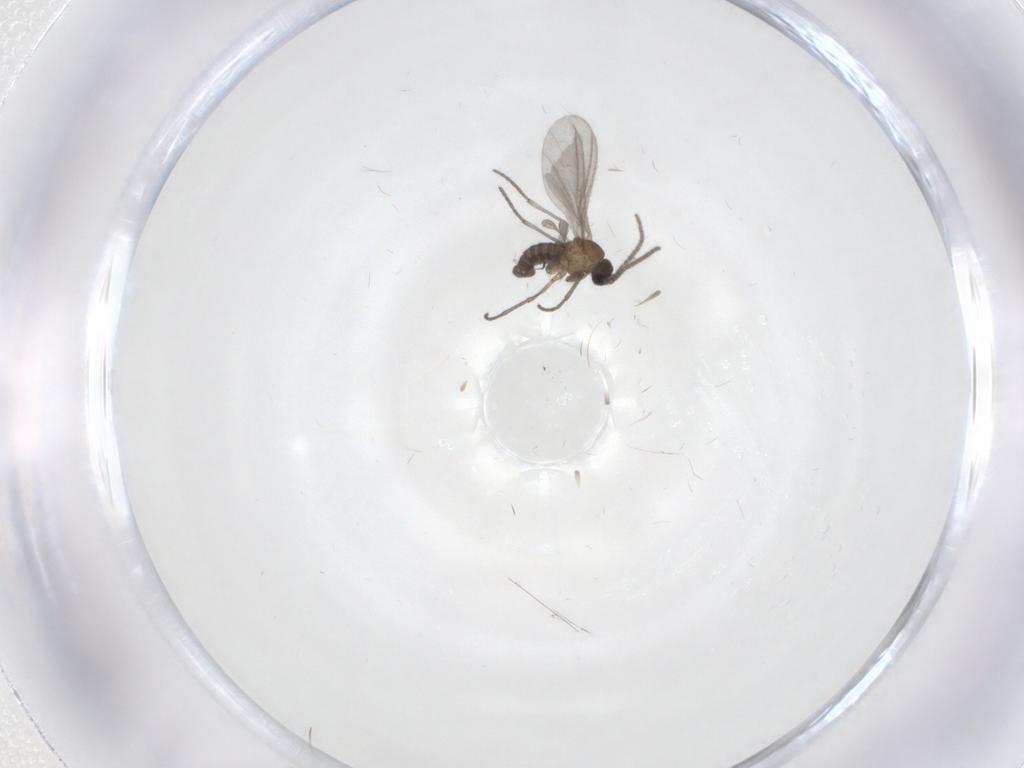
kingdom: Animalia
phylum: Arthropoda
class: Insecta
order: Diptera
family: Sciaridae
